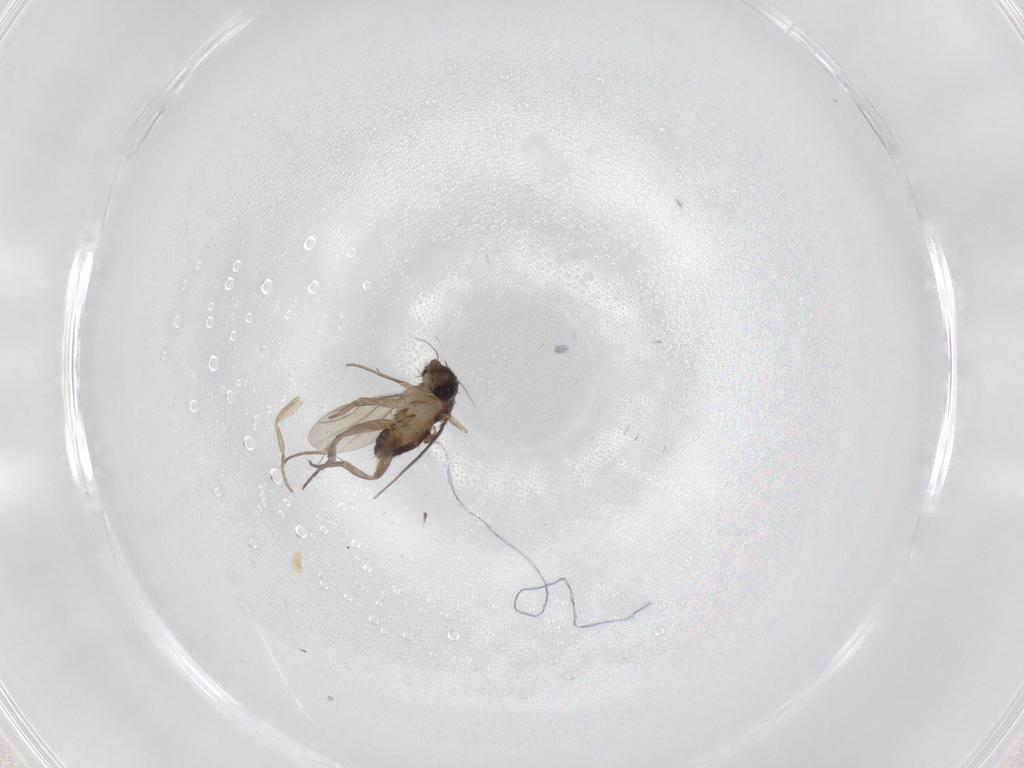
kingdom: Animalia
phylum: Arthropoda
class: Insecta
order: Diptera
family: Phoridae
